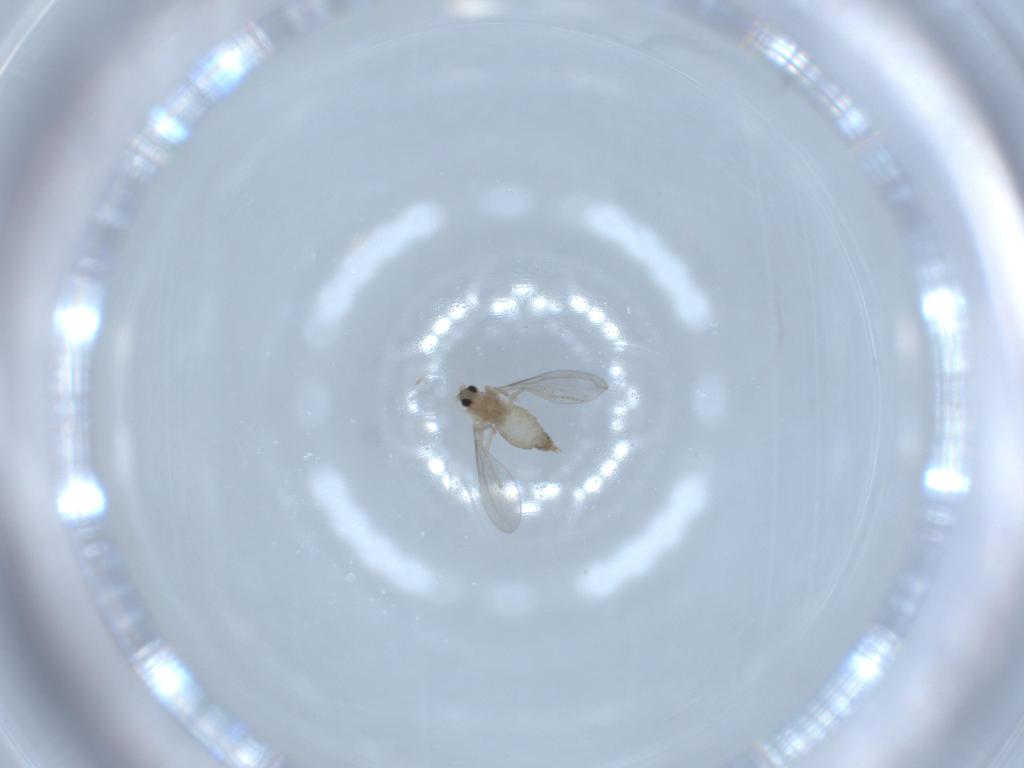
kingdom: Animalia
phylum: Arthropoda
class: Insecta
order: Diptera
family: Cecidomyiidae
